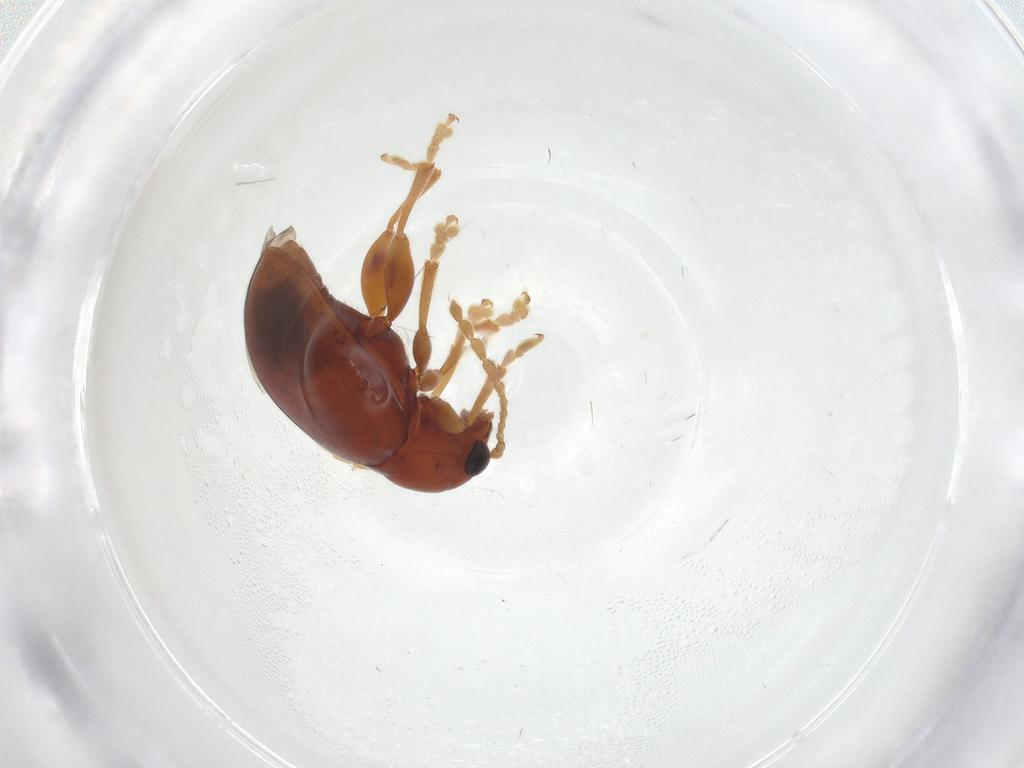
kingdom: Animalia
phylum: Arthropoda
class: Insecta
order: Coleoptera
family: Chrysomelidae
